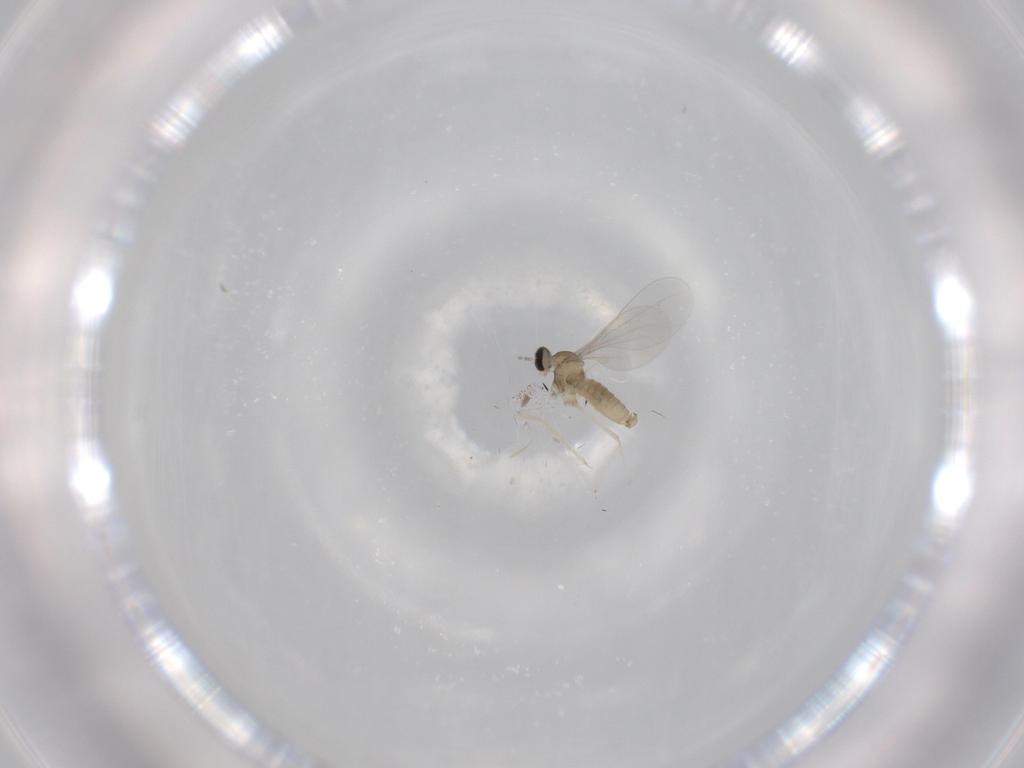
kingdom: Animalia
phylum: Arthropoda
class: Insecta
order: Diptera
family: Cecidomyiidae
